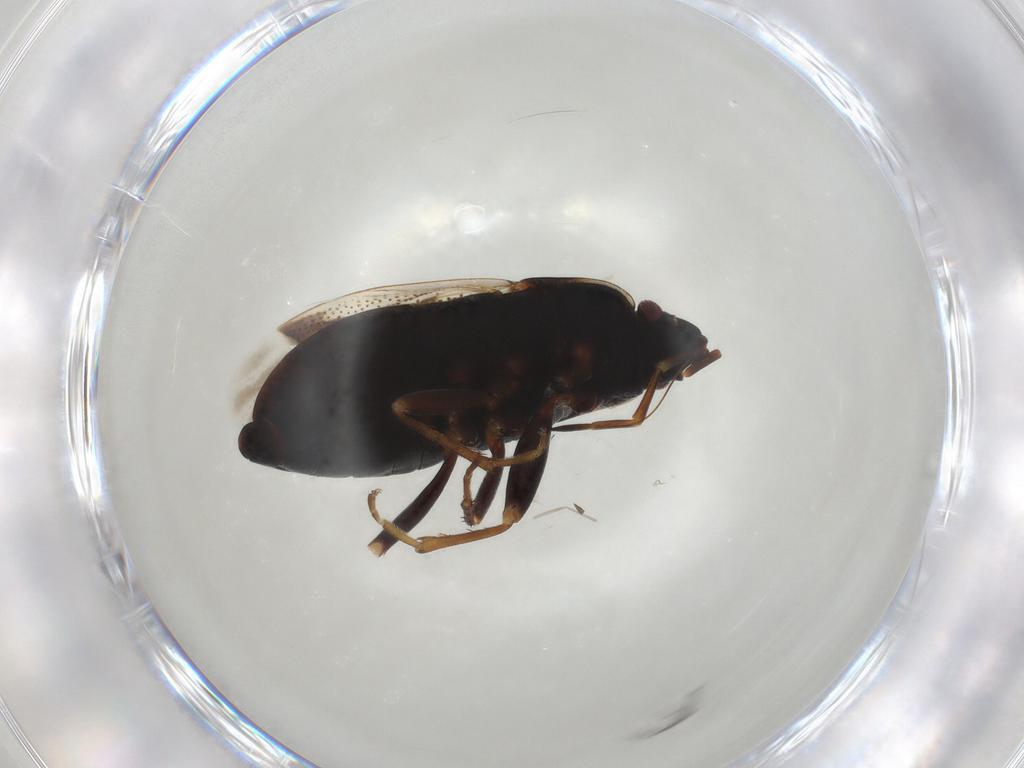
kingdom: Animalia
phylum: Arthropoda
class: Insecta
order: Hemiptera
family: Rhyparochromidae
